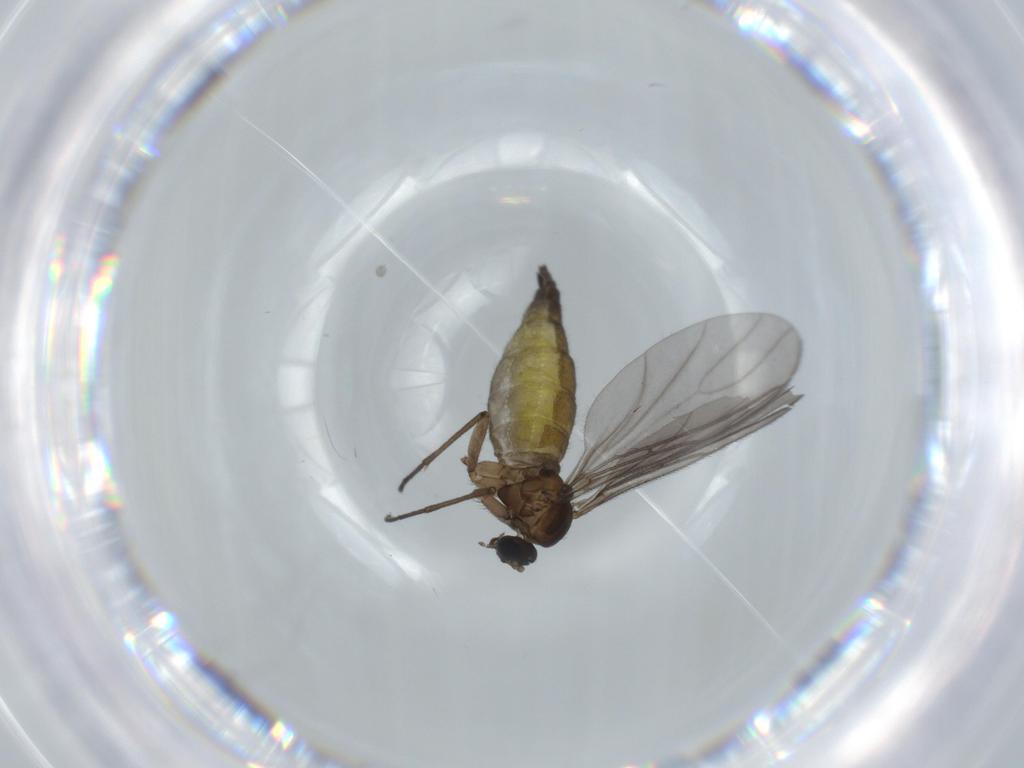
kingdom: Animalia
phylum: Arthropoda
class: Insecta
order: Diptera
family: Sciaridae
